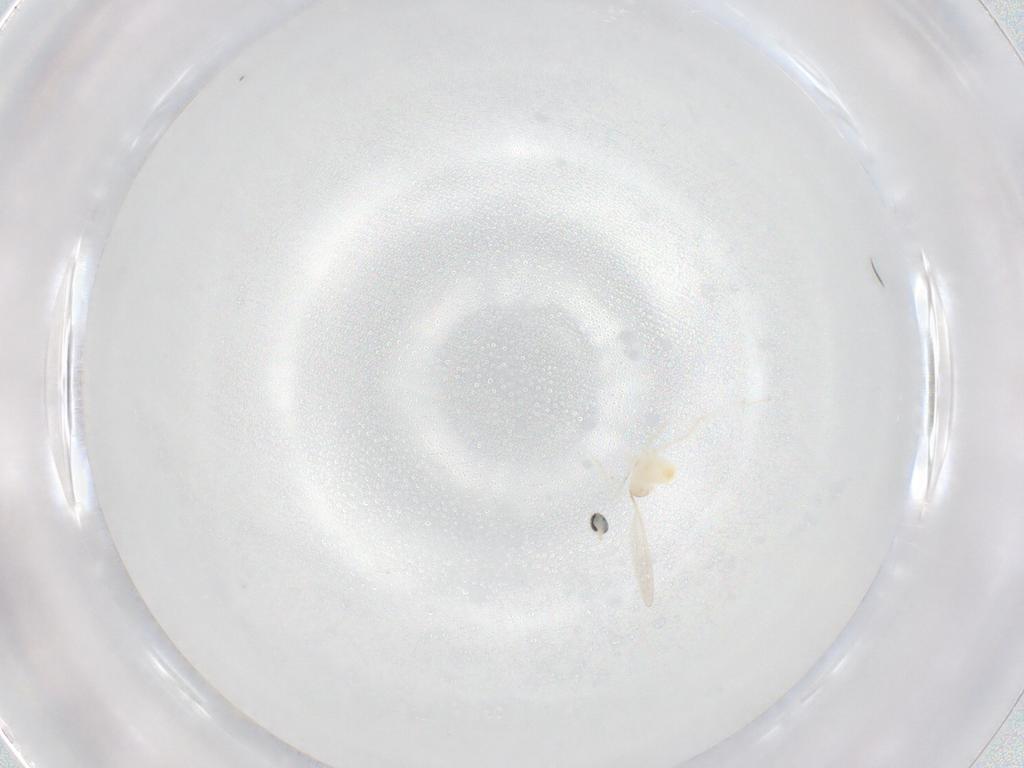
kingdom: Animalia
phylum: Arthropoda
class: Insecta
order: Diptera
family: Cecidomyiidae
